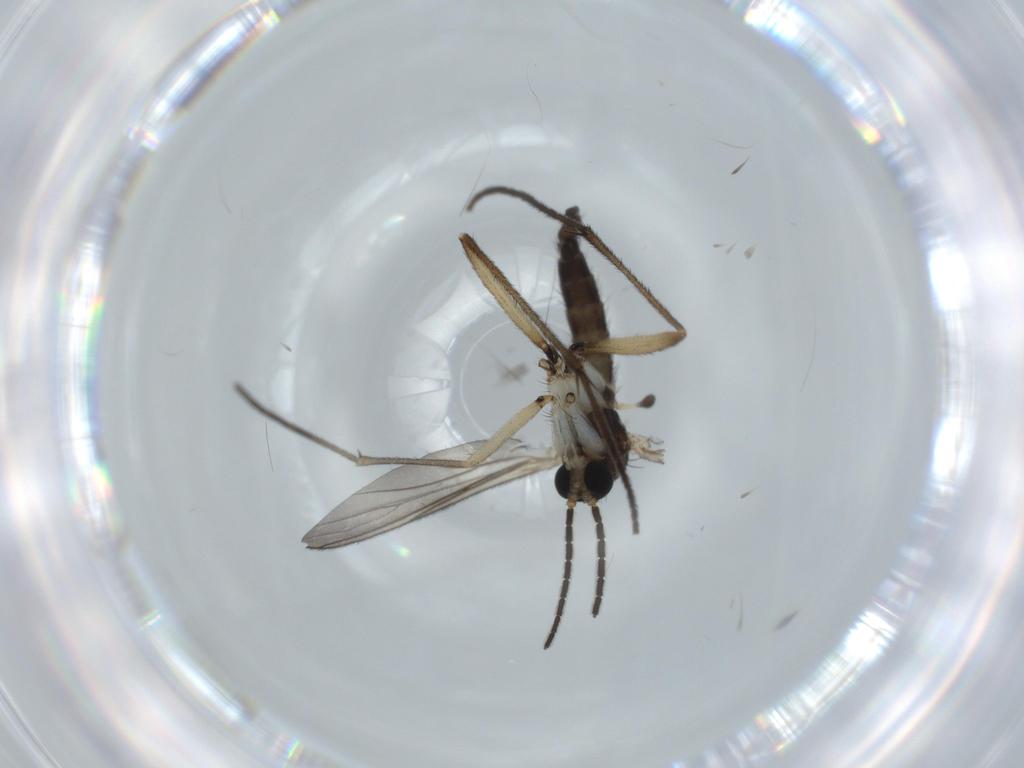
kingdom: Animalia
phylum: Arthropoda
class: Insecta
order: Diptera
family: Sciaridae
